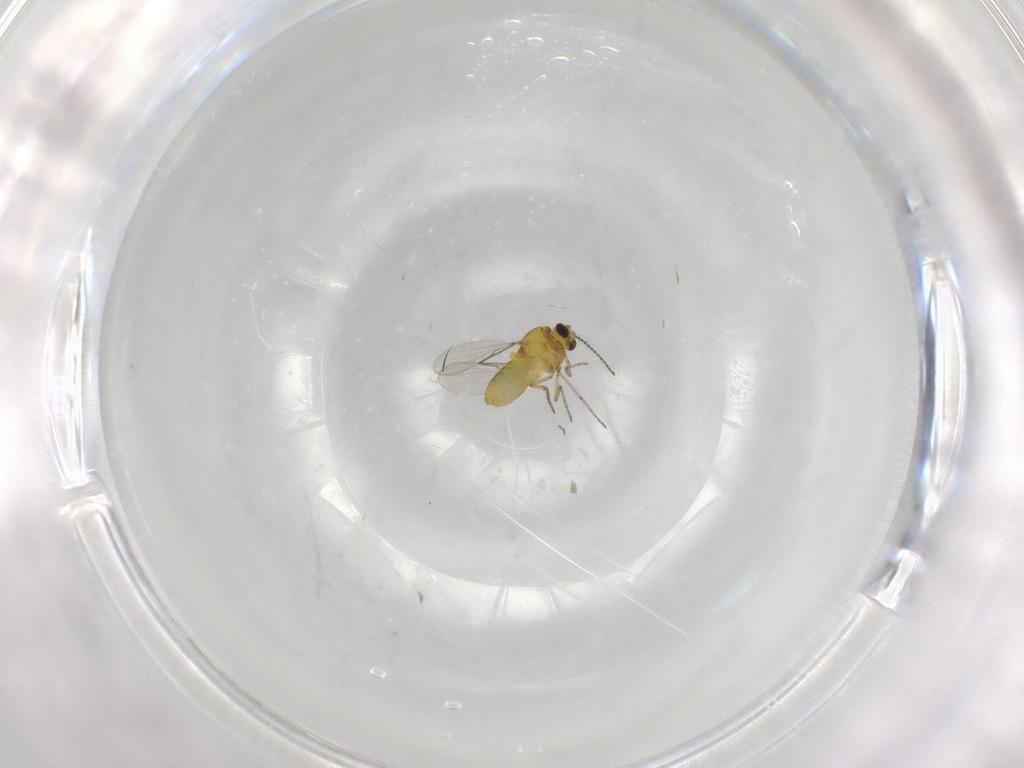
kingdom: Animalia
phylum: Arthropoda
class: Insecta
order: Diptera
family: Ceratopogonidae
